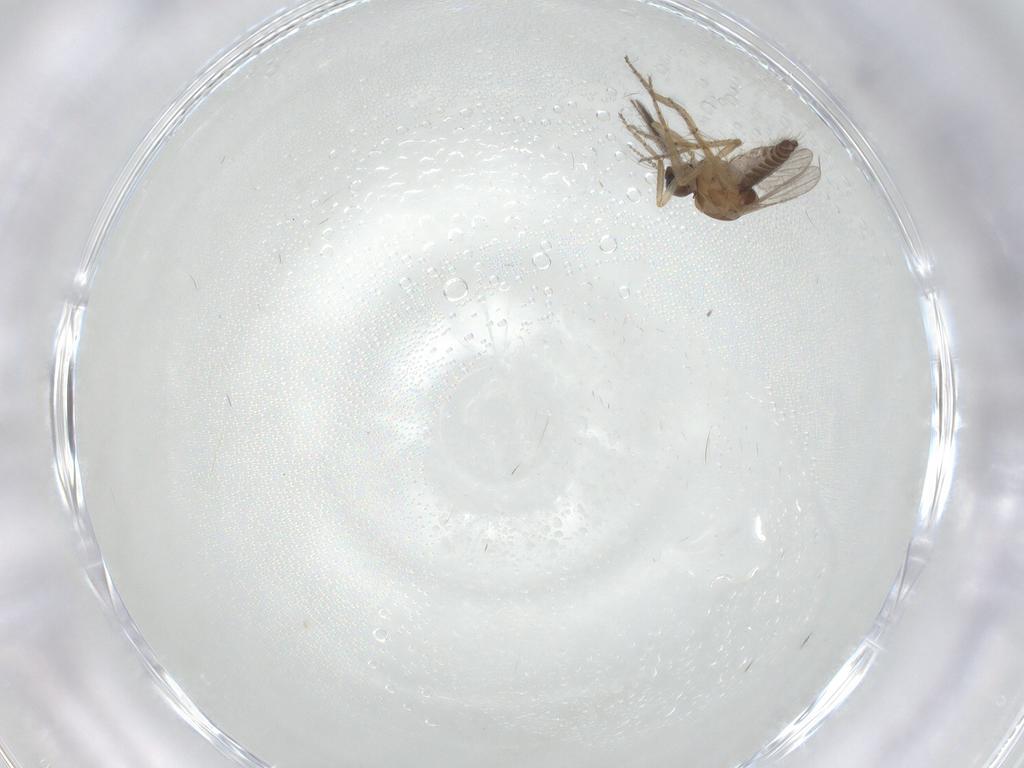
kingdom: Animalia
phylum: Arthropoda
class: Insecta
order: Diptera
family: Ceratopogonidae
